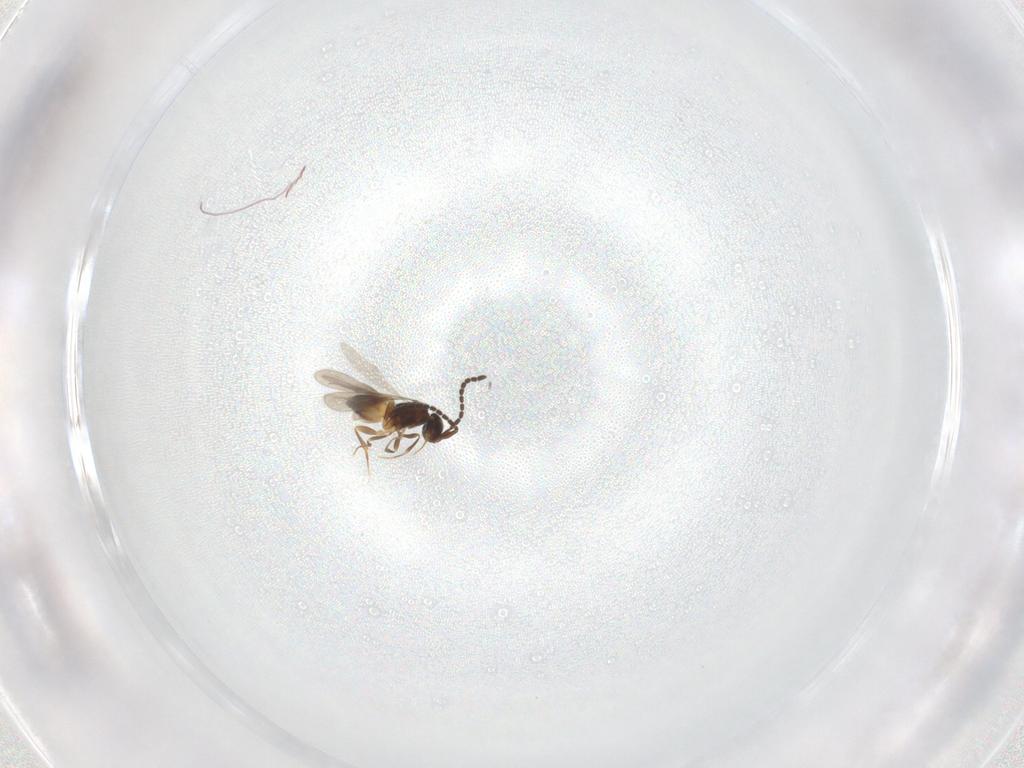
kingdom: Animalia
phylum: Arthropoda
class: Insecta
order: Hymenoptera
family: Ceraphronidae
